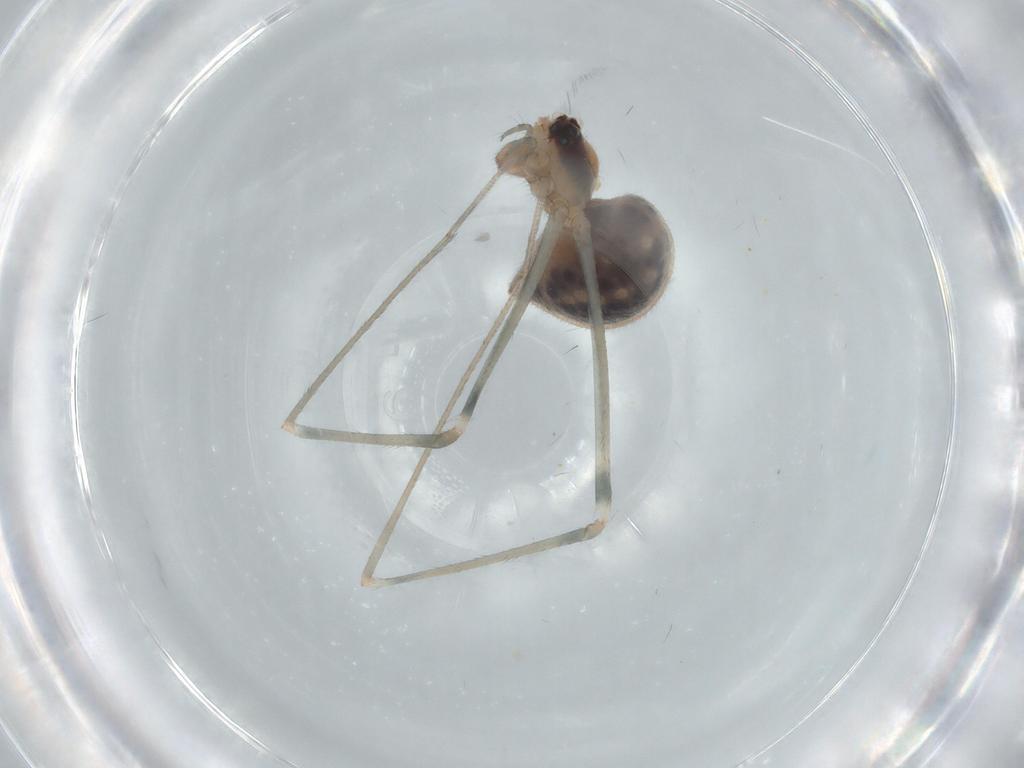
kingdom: Animalia
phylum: Arthropoda
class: Arachnida
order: Araneae
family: Pholcidae
